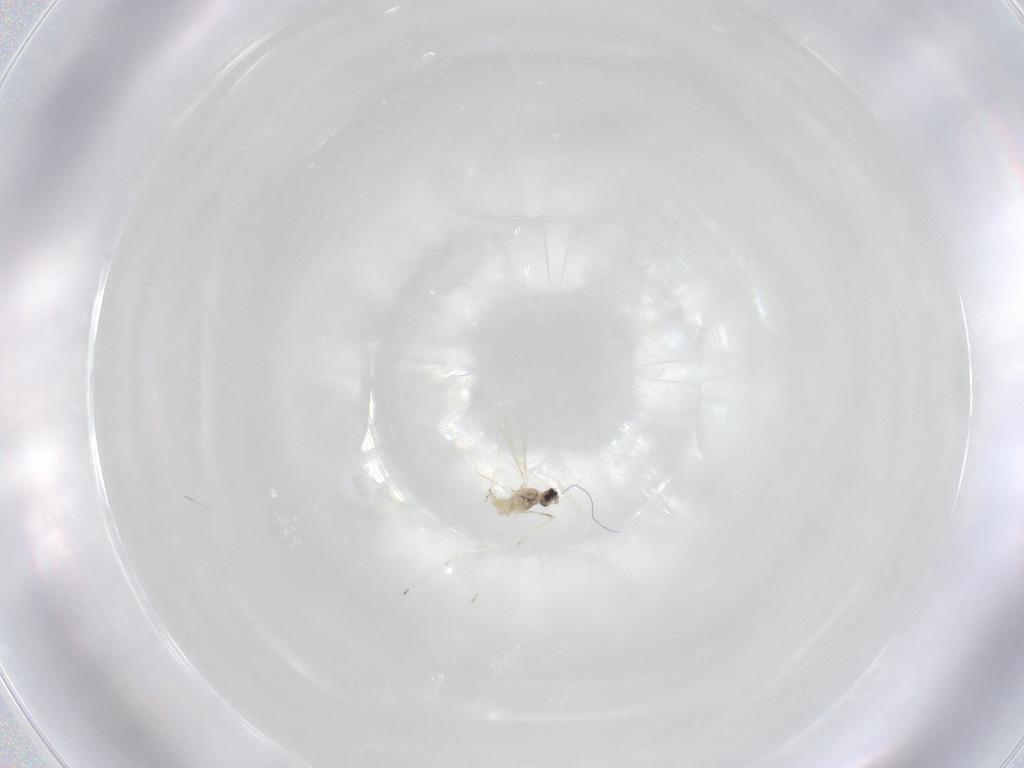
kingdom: Animalia
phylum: Arthropoda
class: Insecta
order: Diptera
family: Cecidomyiidae
